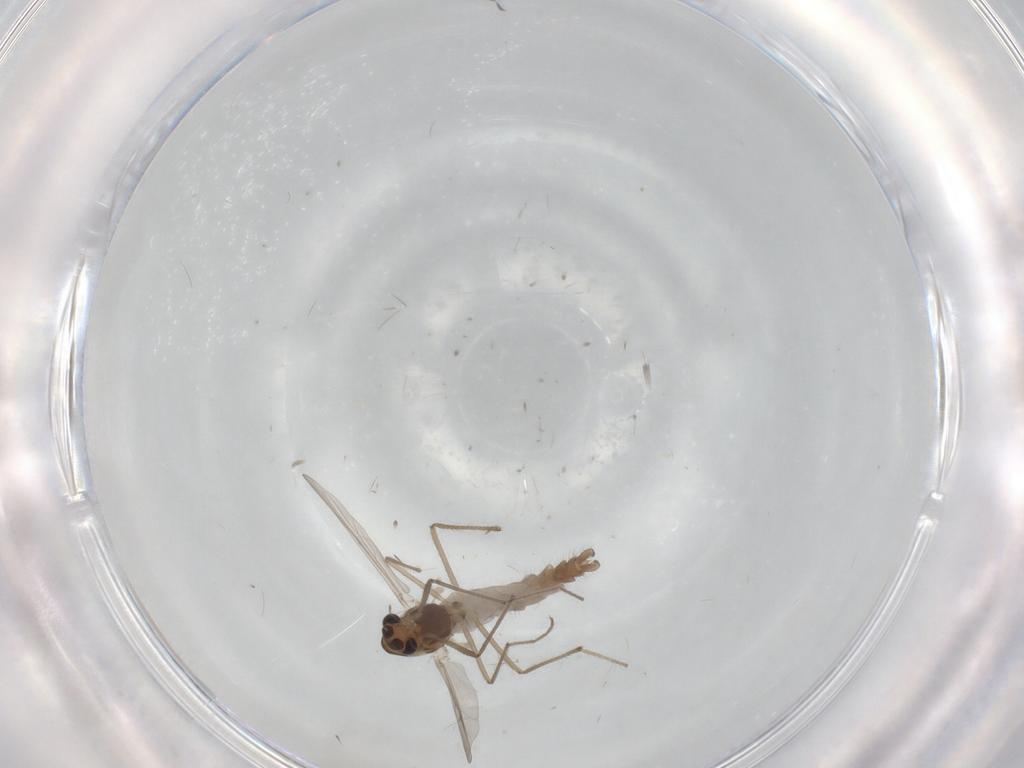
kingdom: Animalia
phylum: Arthropoda
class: Insecta
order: Diptera
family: Chironomidae
